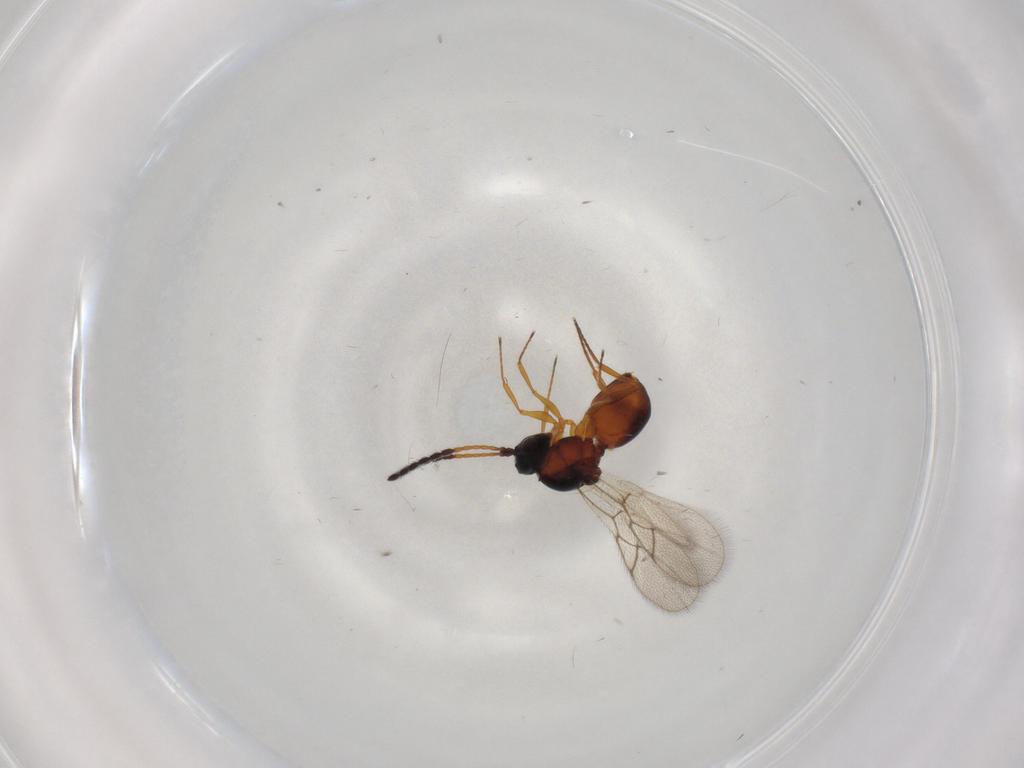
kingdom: Animalia
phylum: Arthropoda
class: Insecta
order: Hymenoptera
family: Figitidae
